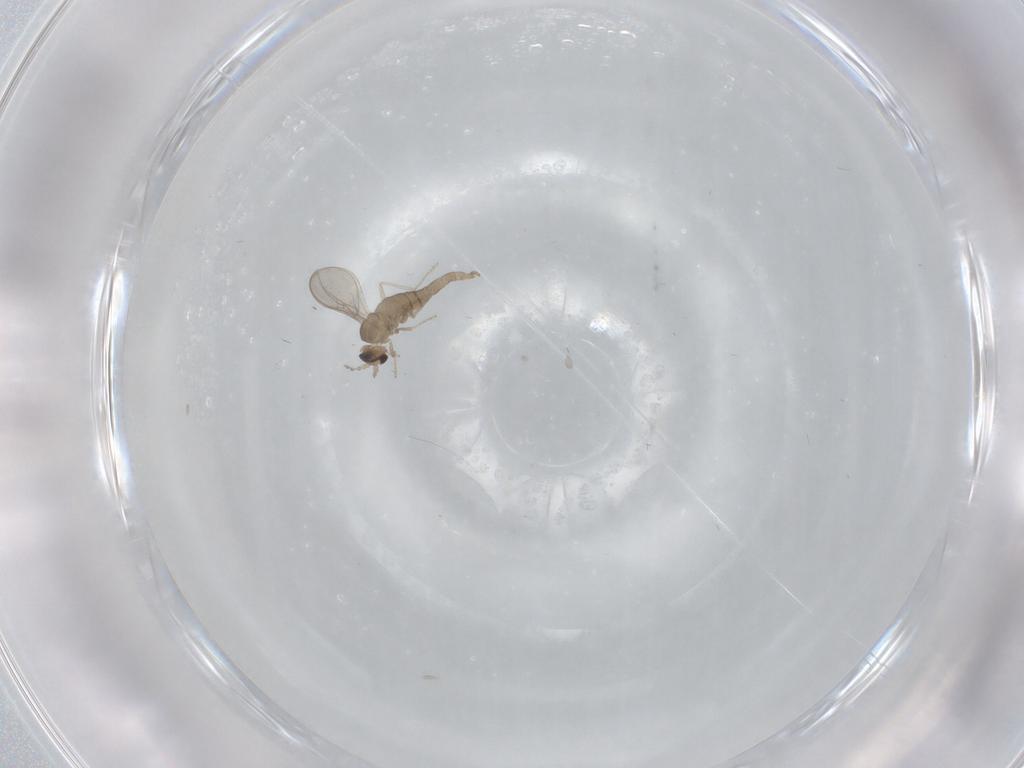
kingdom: Animalia
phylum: Arthropoda
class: Insecta
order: Diptera
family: Cecidomyiidae
